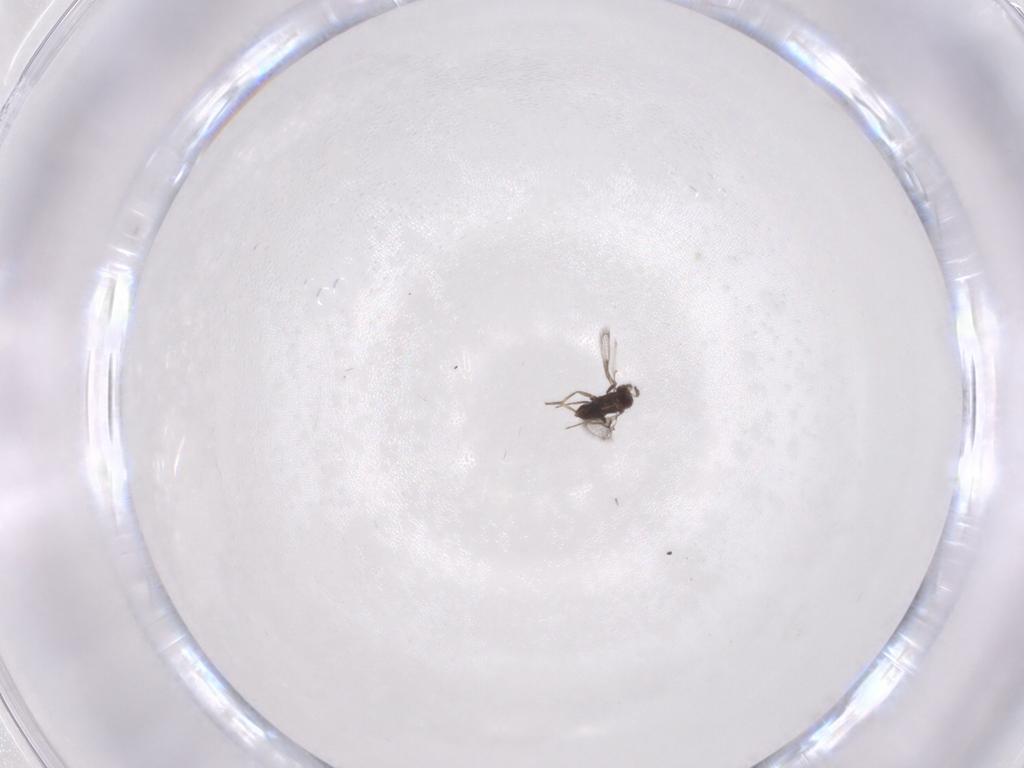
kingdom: Animalia
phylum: Arthropoda
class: Insecta
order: Hymenoptera
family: Trichogrammatidae
